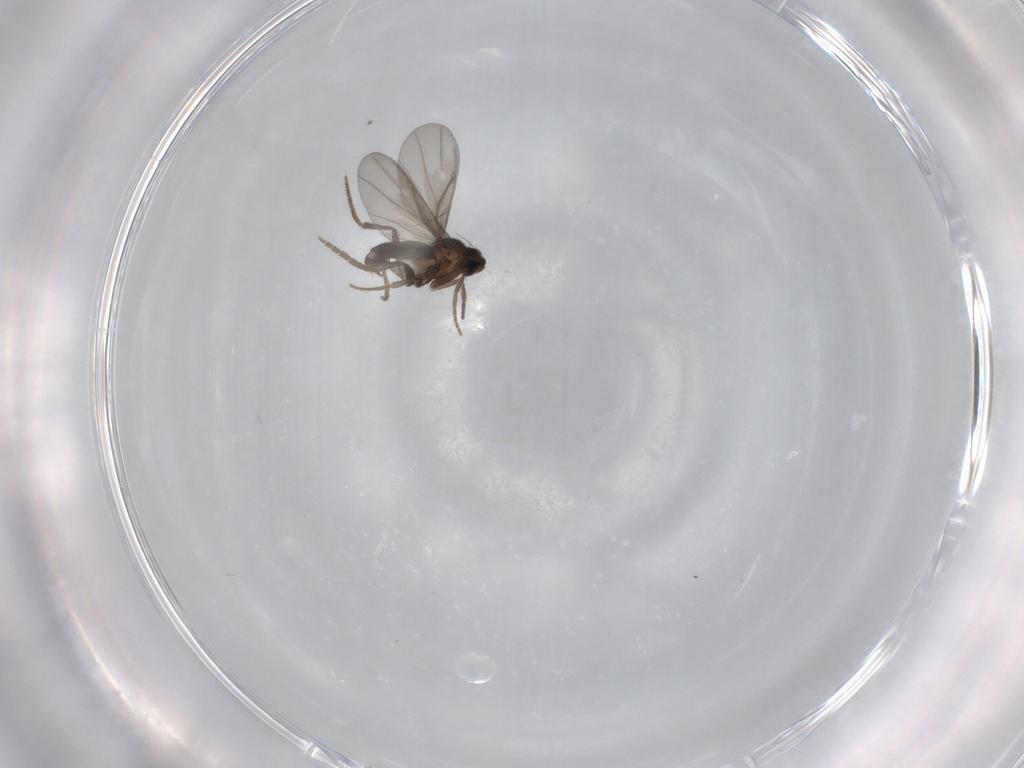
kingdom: Animalia
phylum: Arthropoda
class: Insecta
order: Diptera
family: Phoridae
